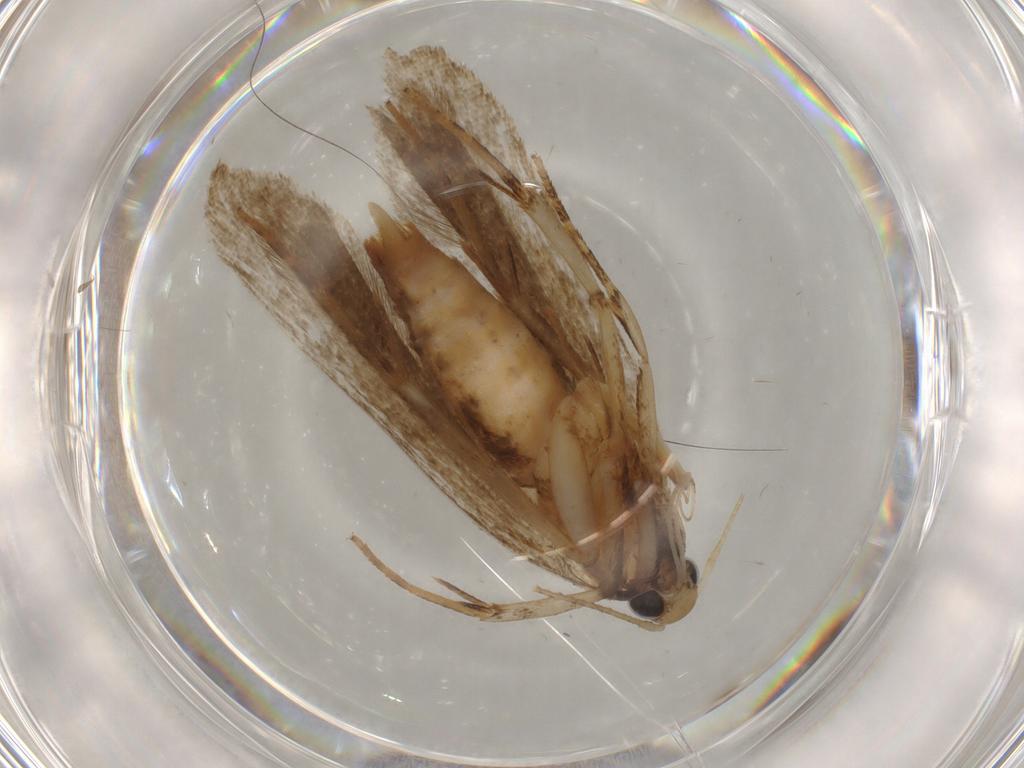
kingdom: Animalia
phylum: Arthropoda
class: Insecta
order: Lepidoptera
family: Cosmopterigidae
